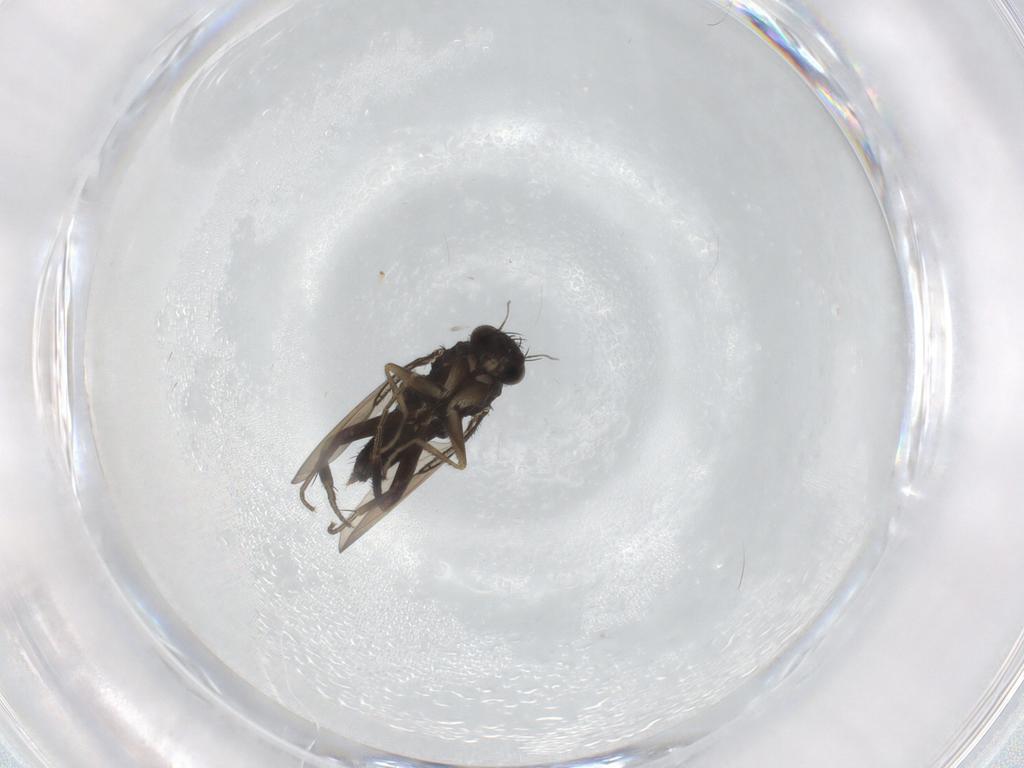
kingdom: Animalia
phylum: Arthropoda
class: Insecta
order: Diptera
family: Phoridae
